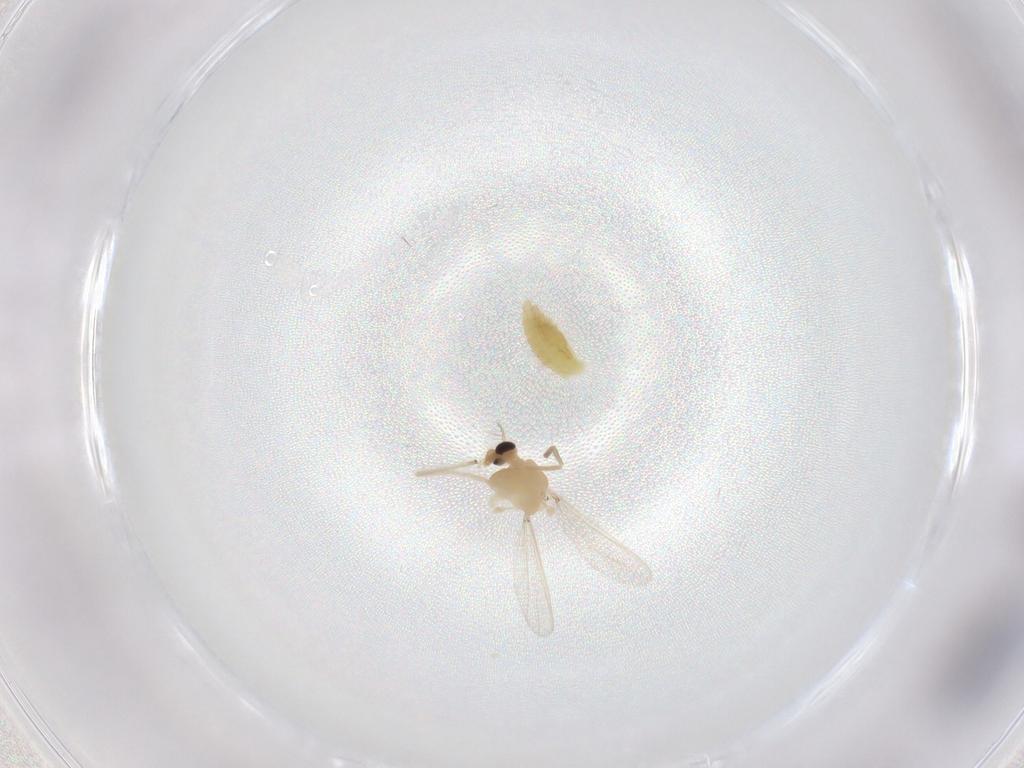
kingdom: Animalia
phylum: Arthropoda
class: Insecta
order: Diptera
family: Chironomidae
